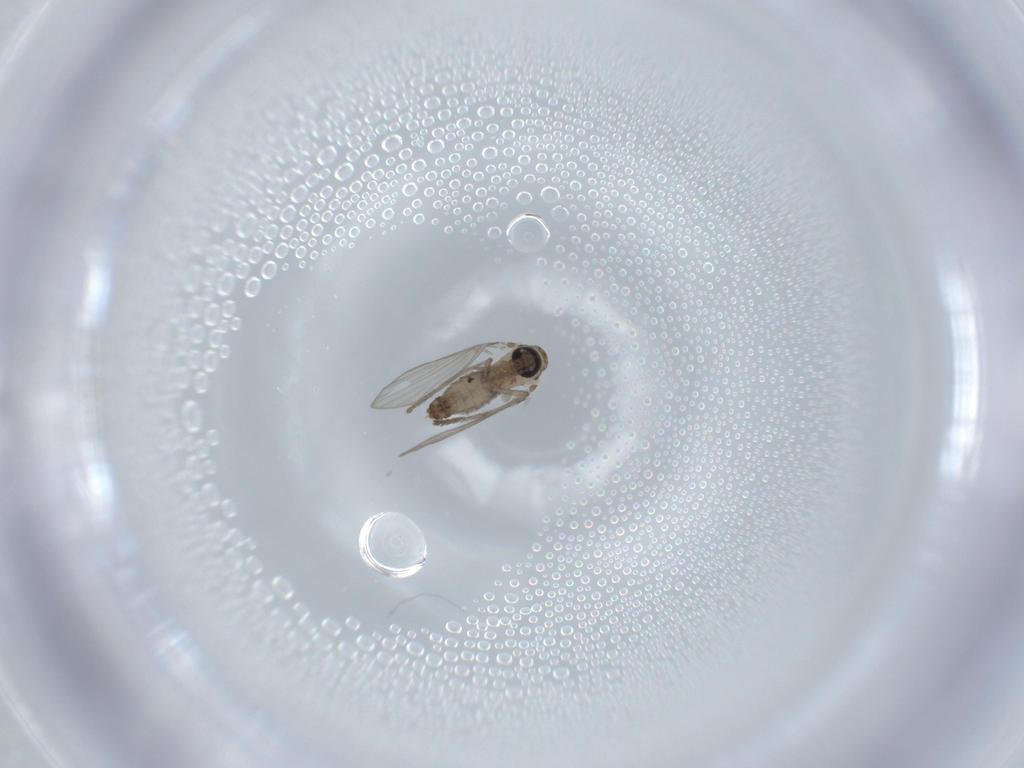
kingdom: Animalia
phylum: Arthropoda
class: Insecta
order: Diptera
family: Psychodidae
